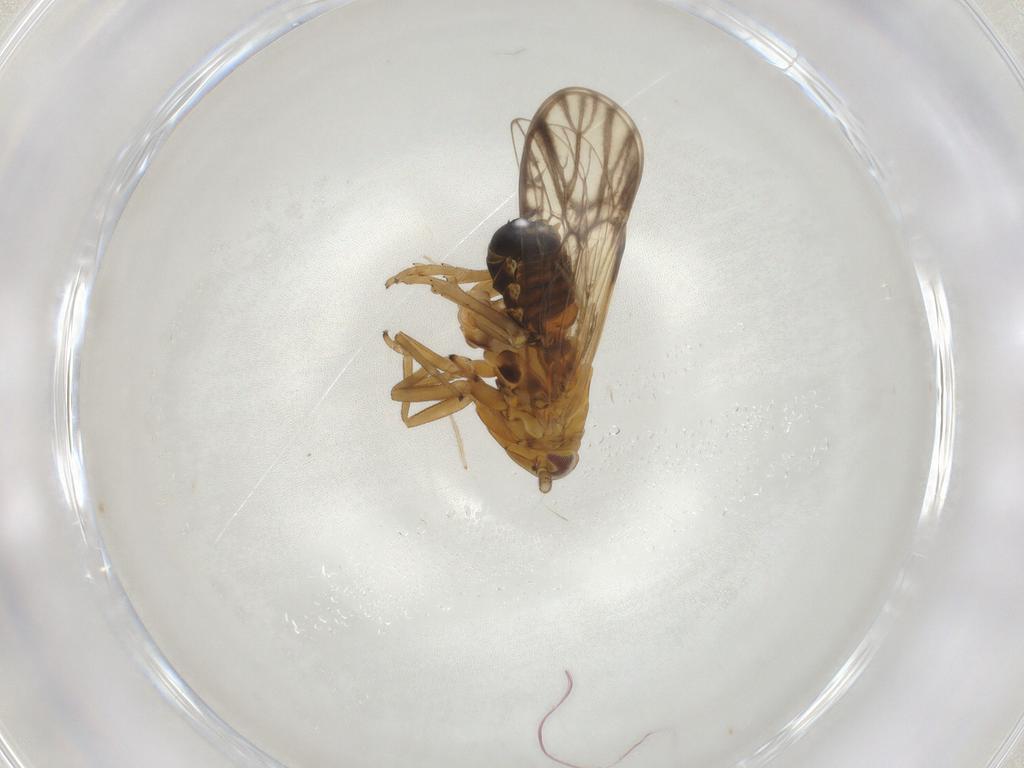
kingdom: Animalia
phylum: Arthropoda
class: Insecta
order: Hemiptera
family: Delphacidae
